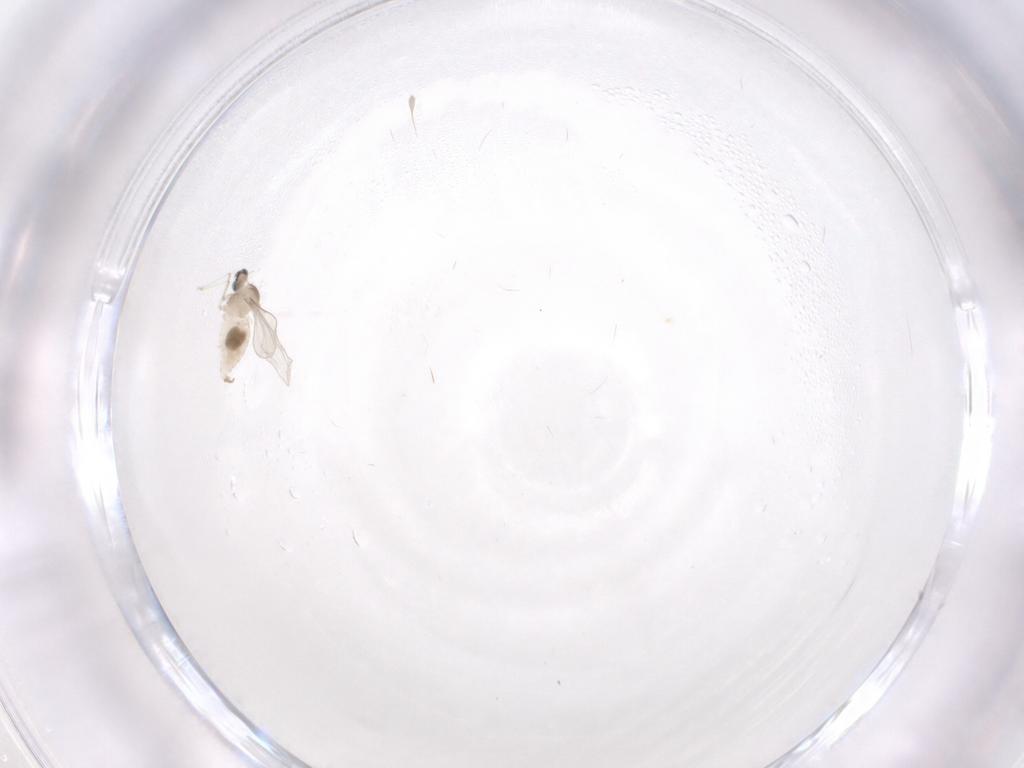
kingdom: Animalia
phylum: Arthropoda
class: Insecta
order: Diptera
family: Cecidomyiidae
